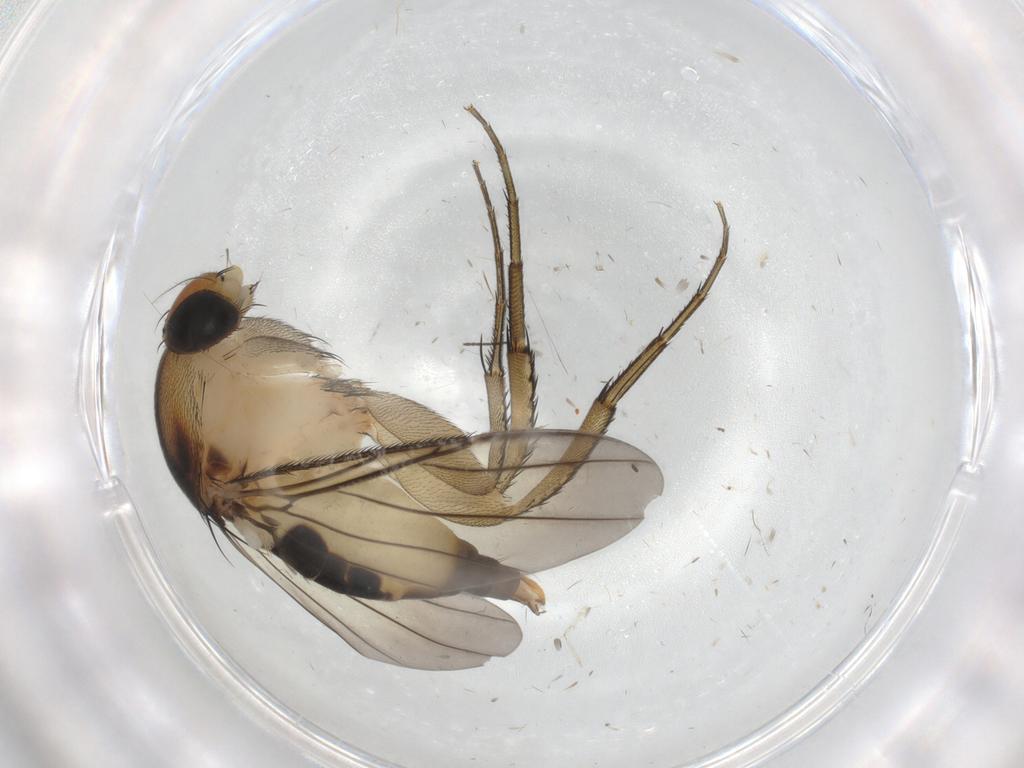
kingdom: Animalia
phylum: Arthropoda
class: Insecta
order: Diptera
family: Phoridae
